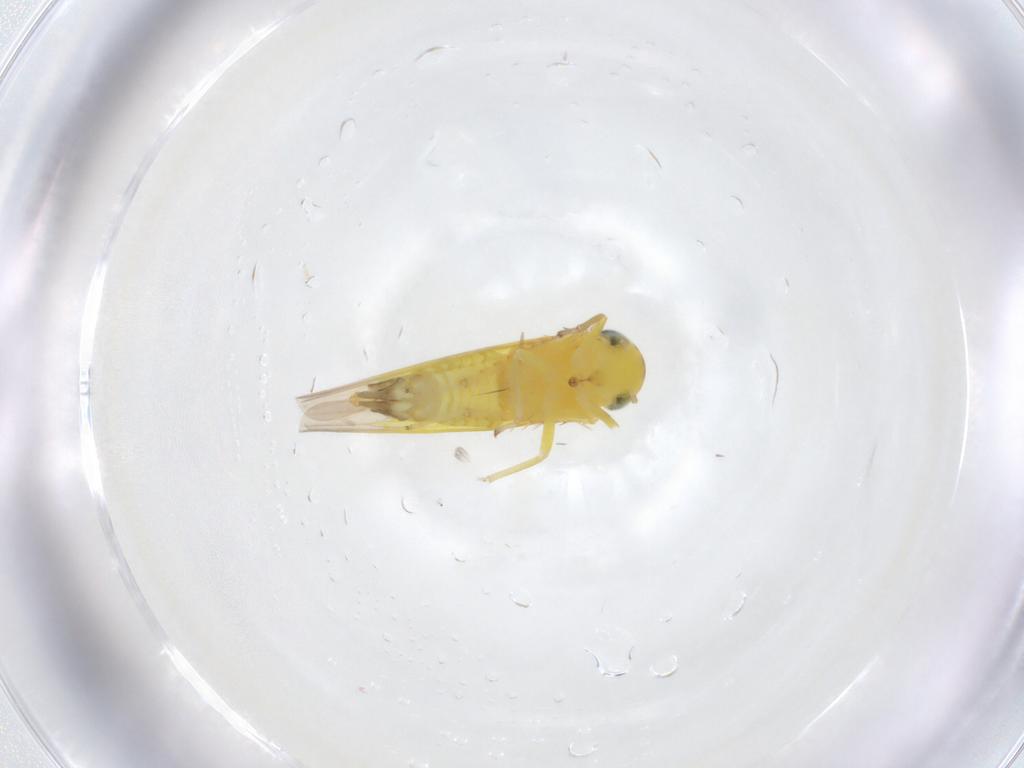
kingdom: Animalia
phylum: Arthropoda
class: Insecta
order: Hemiptera
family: Cicadellidae
